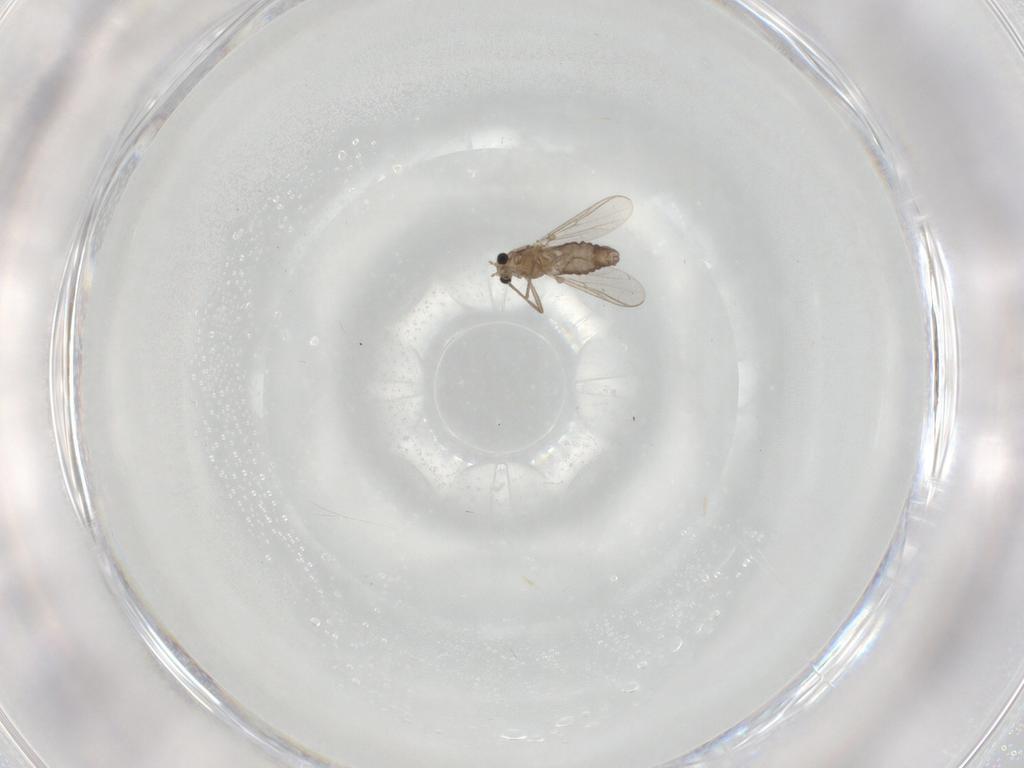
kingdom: Animalia
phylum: Arthropoda
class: Insecta
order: Diptera
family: Chironomidae
